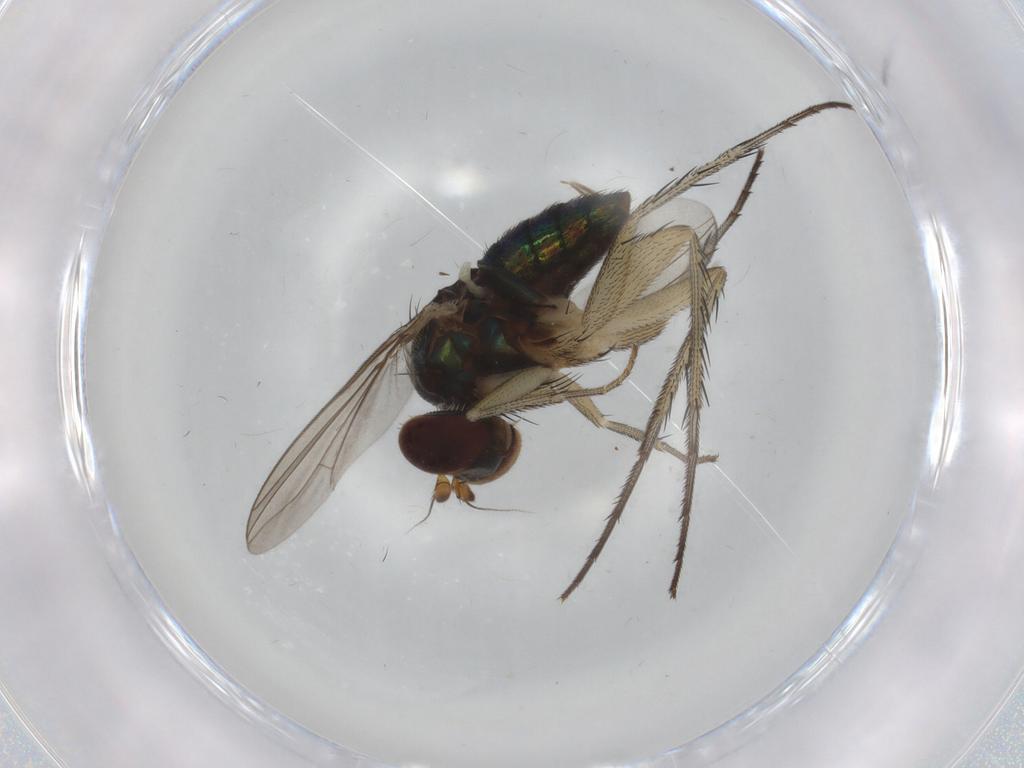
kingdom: Animalia
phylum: Arthropoda
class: Insecta
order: Diptera
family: Dolichopodidae
